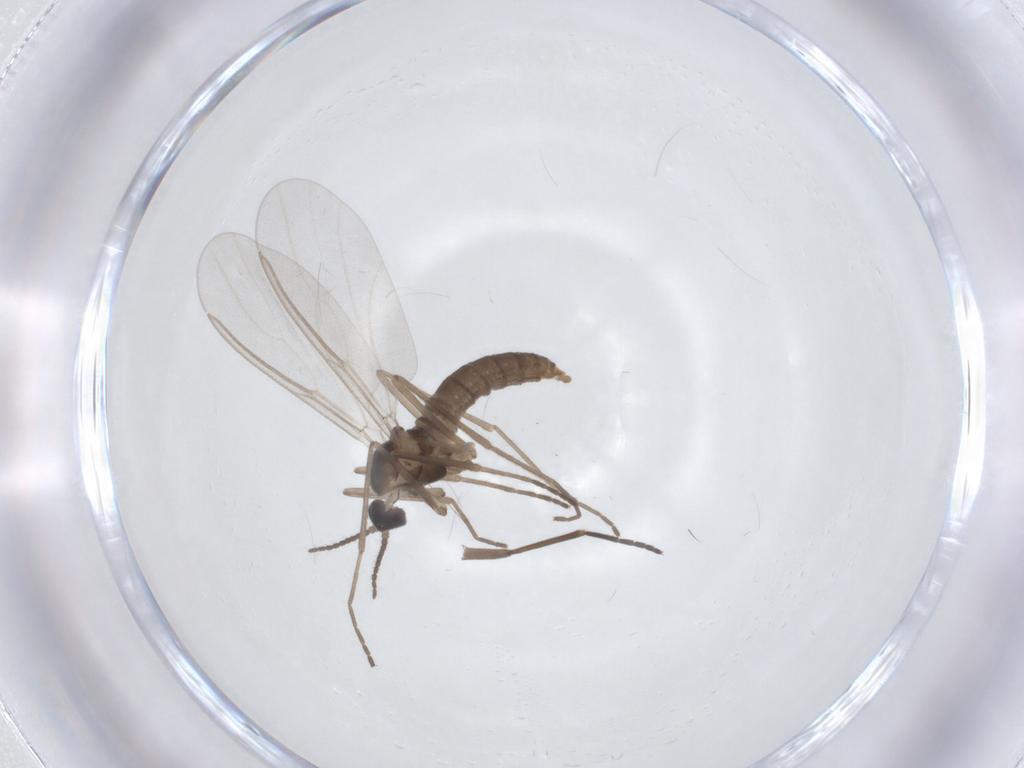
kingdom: Animalia
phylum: Arthropoda
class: Insecta
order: Diptera
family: Cecidomyiidae
